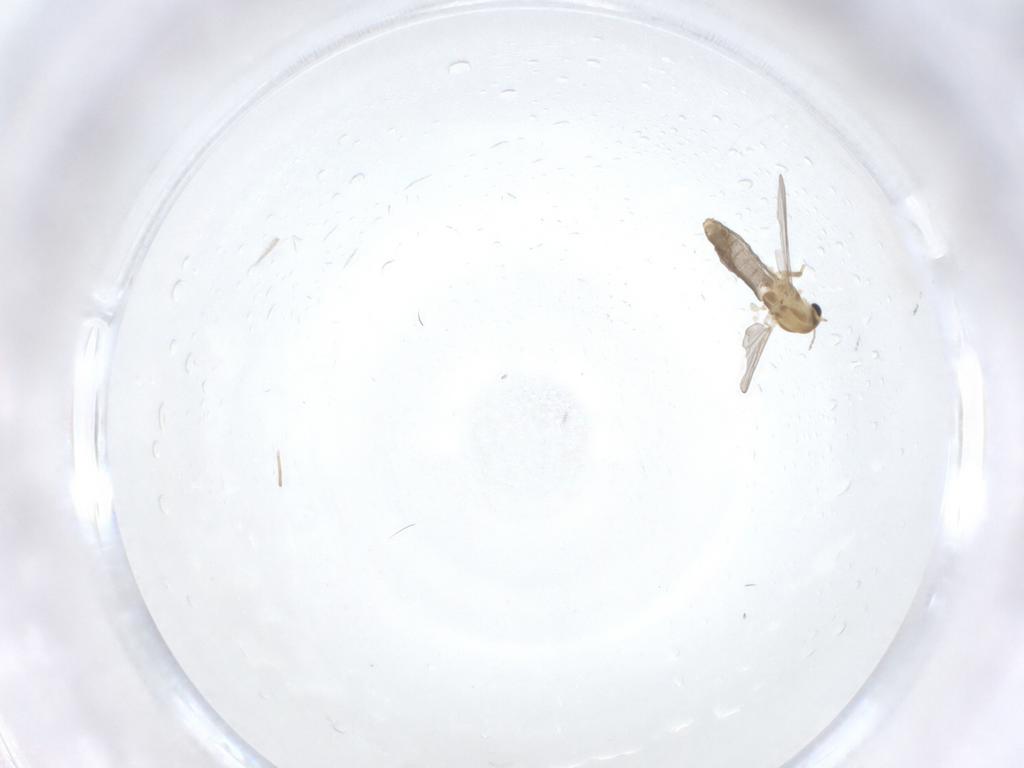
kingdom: Animalia
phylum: Arthropoda
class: Insecta
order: Diptera
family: Chironomidae
